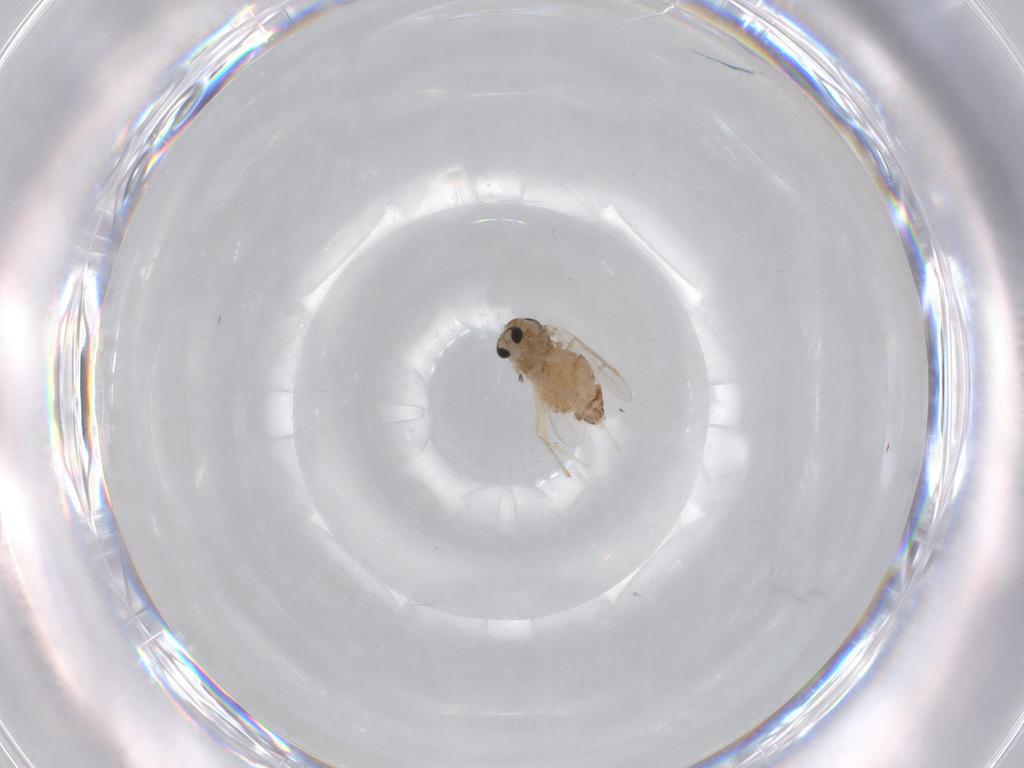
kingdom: Animalia
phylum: Arthropoda
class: Insecta
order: Diptera
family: Chironomidae
